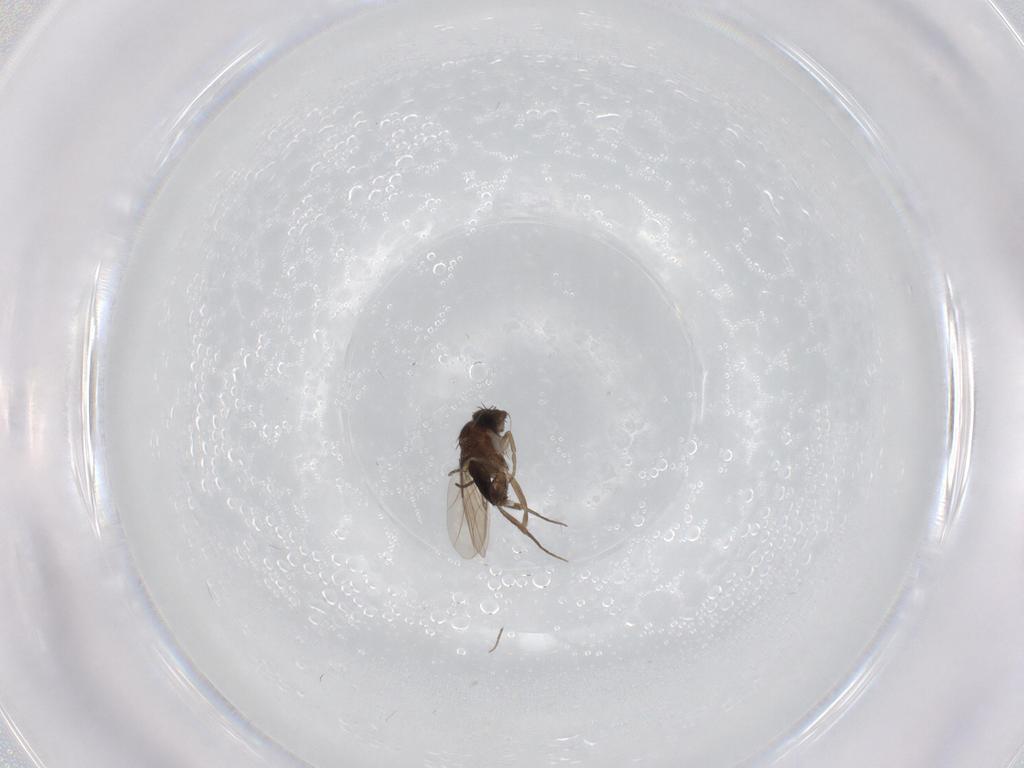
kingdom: Animalia
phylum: Arthropoda
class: Insecta
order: Diptera
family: Phoridae
